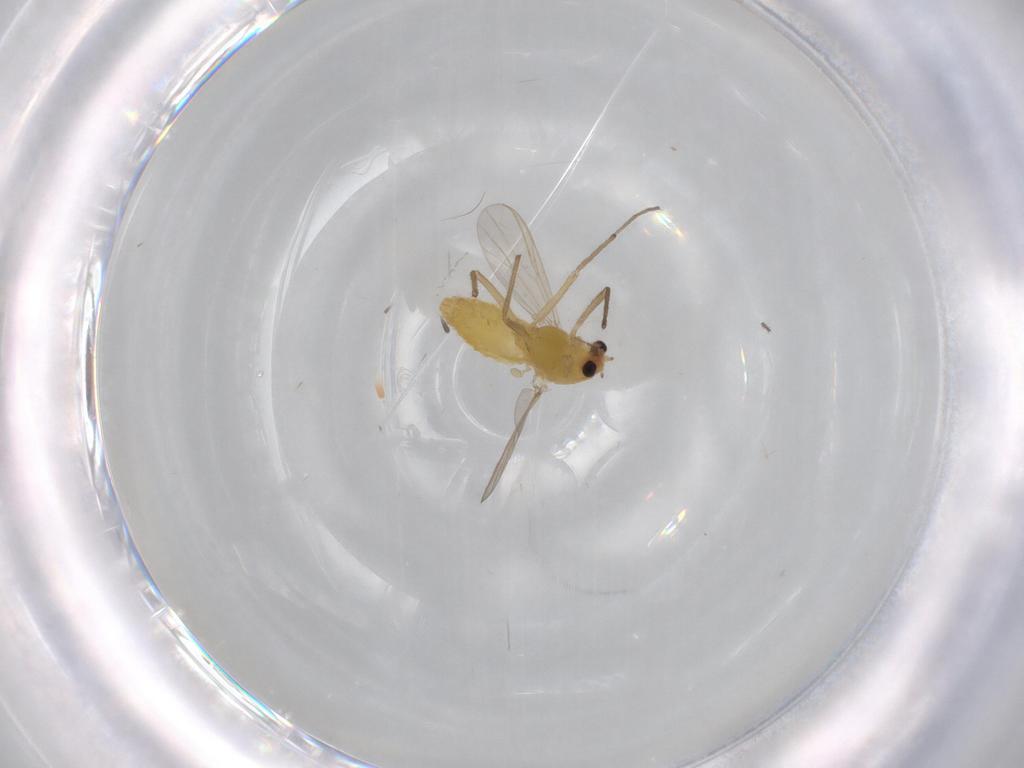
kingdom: Animalia
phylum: Arthropoda
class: Insecta
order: Diptera
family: Chironomidae
